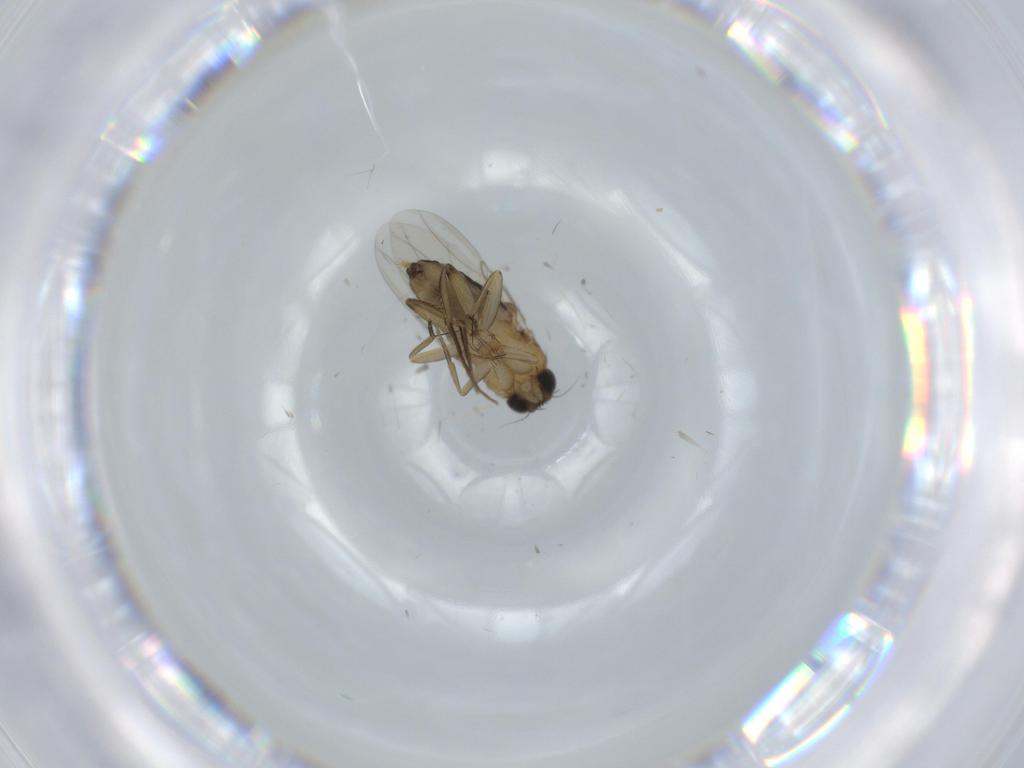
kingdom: Animalia
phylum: Arthropoda
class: Insecta
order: Diptera
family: Phoridae
